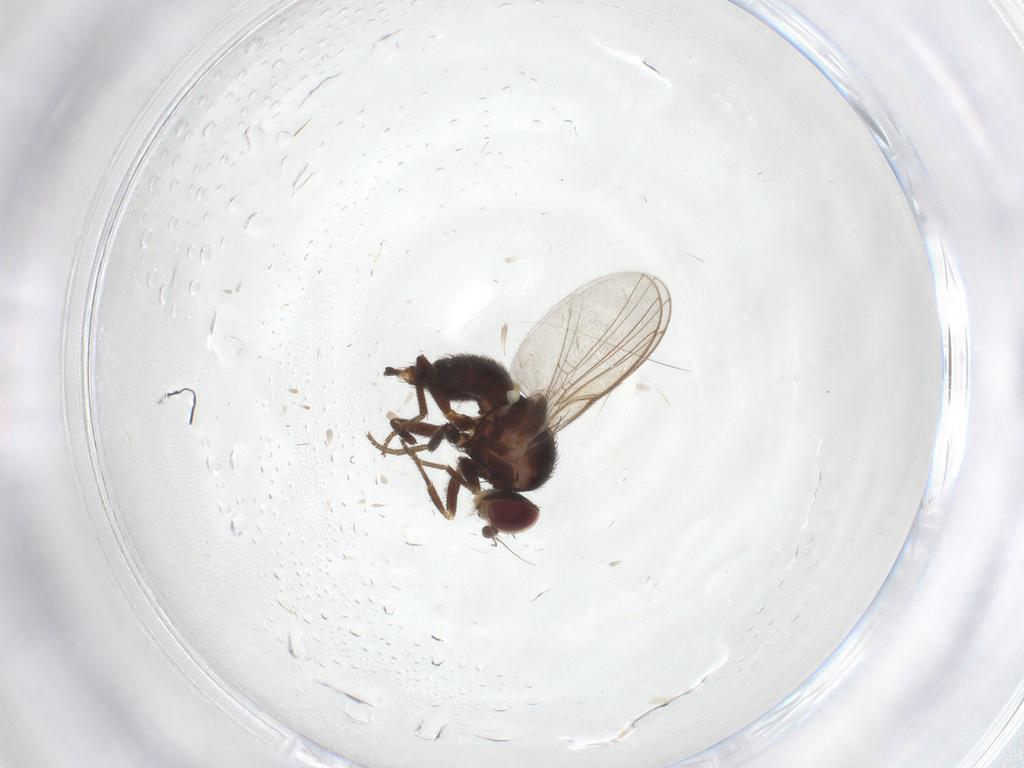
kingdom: Animalia
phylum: Arthropoda
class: Insecta
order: Diptera
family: Agromyzidae
